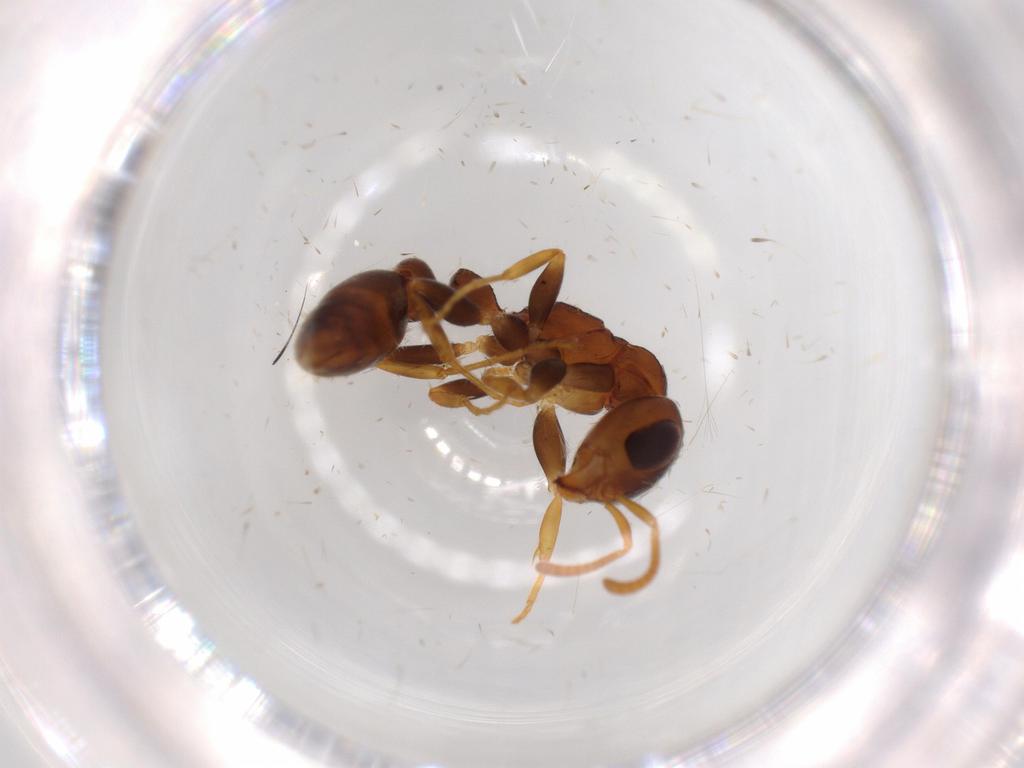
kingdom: Animalia
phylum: Arthropoda
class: Insecta
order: Hymenoptera
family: Formicidae
